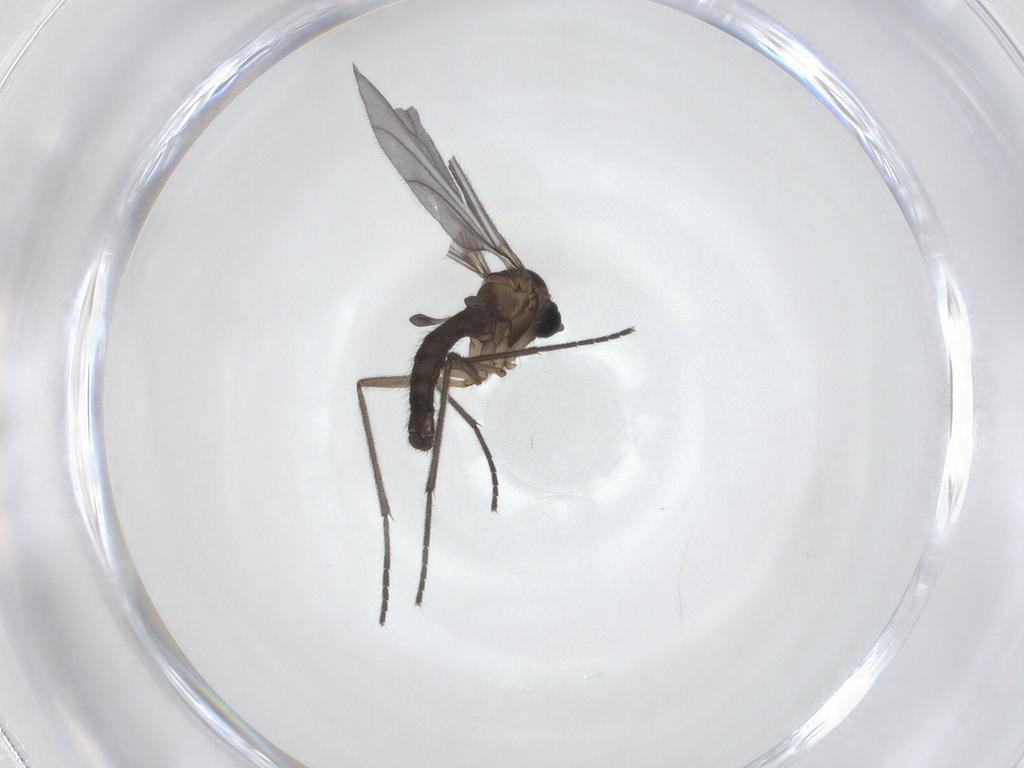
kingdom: Animalia
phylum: Arthropoda
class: Insecta
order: Diptera
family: Sciaridae
